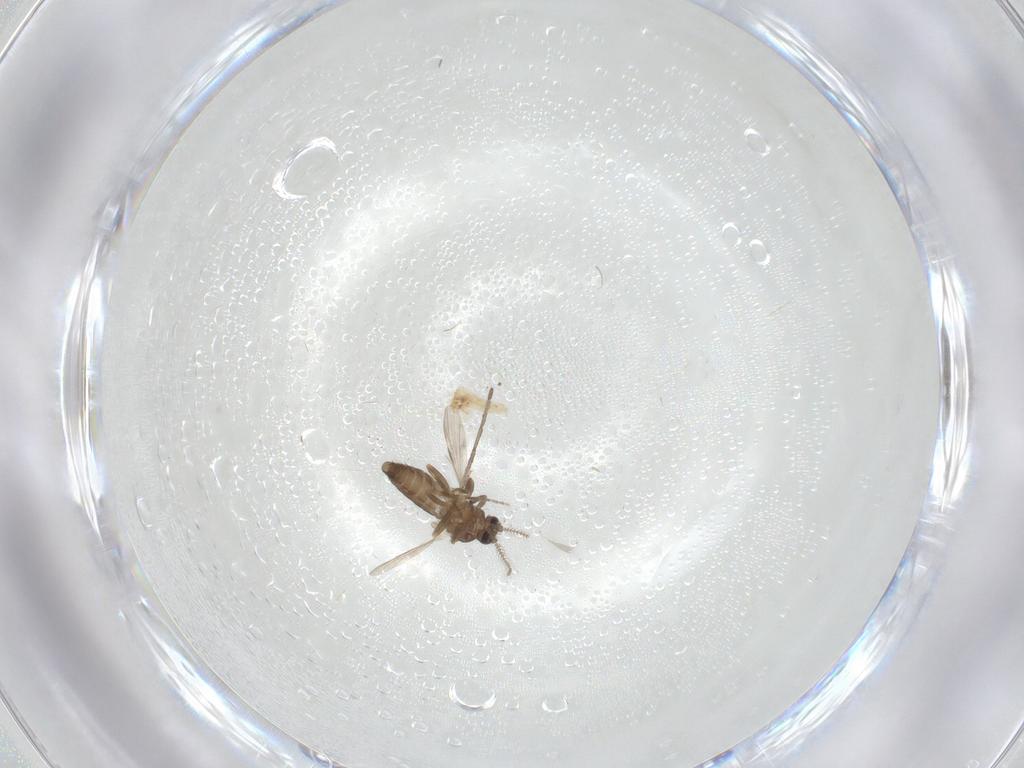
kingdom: Animalia
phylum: Arthropoda
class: Insecta
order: Diptera
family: Ceratopogonidae
